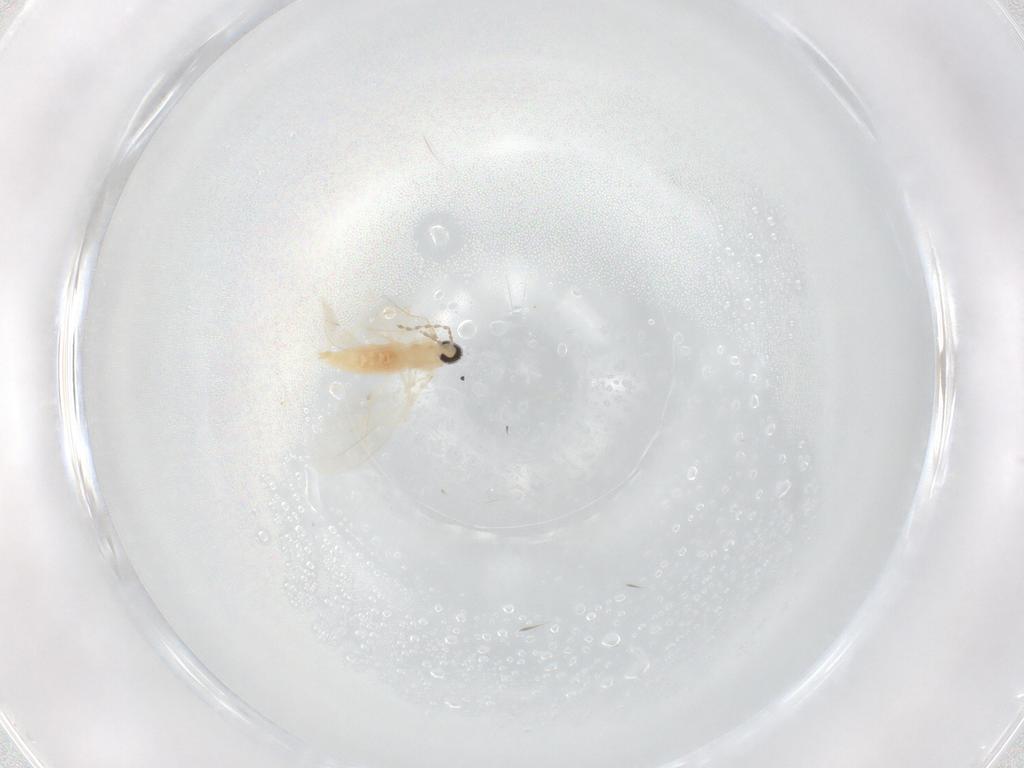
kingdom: Animalia
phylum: Arthropoda
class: Insecta
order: Diptera
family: Cecidomyiidae
